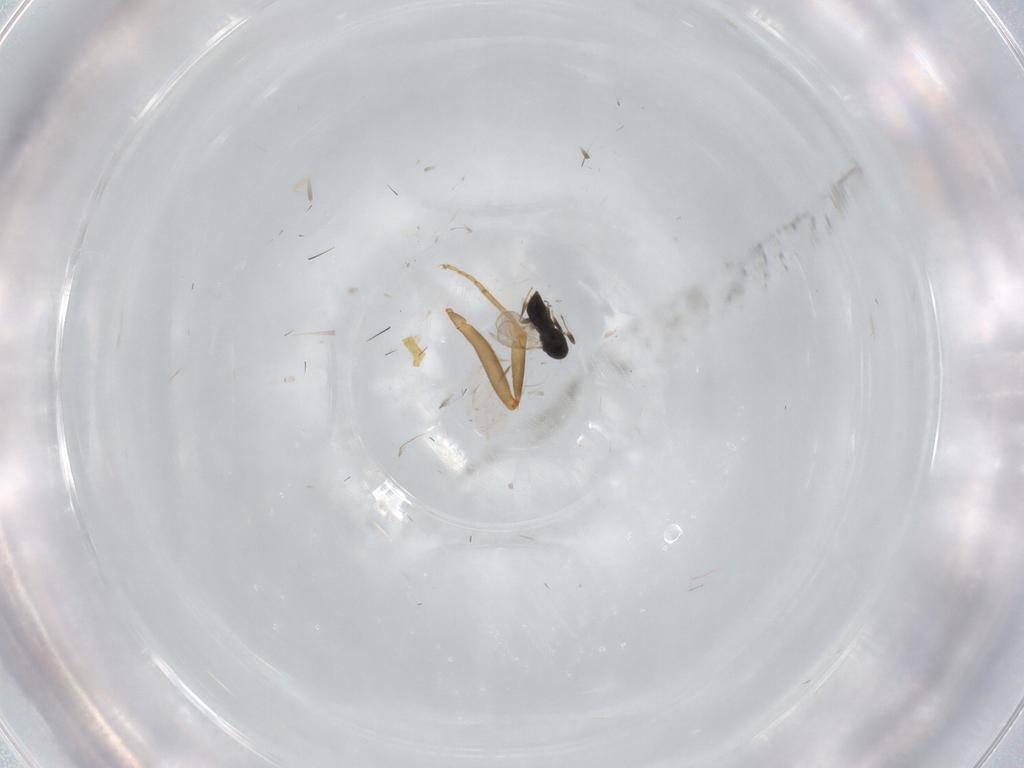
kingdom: Animalia
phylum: Arthropoda
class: Insecta
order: Hymenoptera
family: Scelionidae
